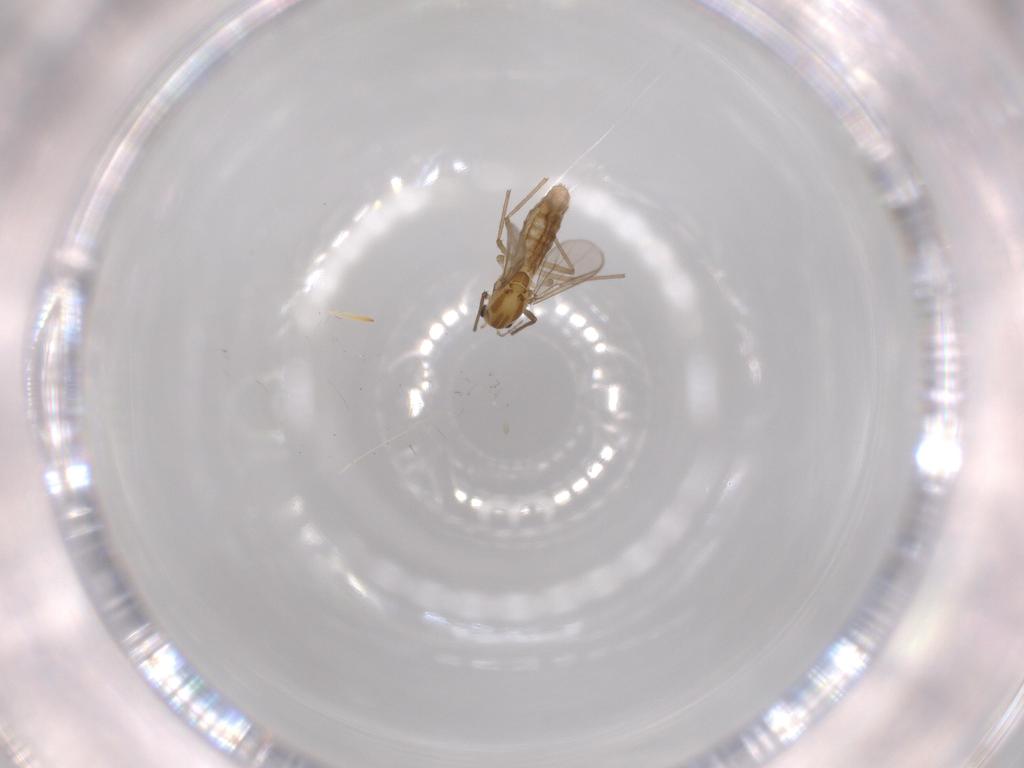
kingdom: Animalia
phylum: Arthropoda
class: Insecta
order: Diptera
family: Chironomidae
